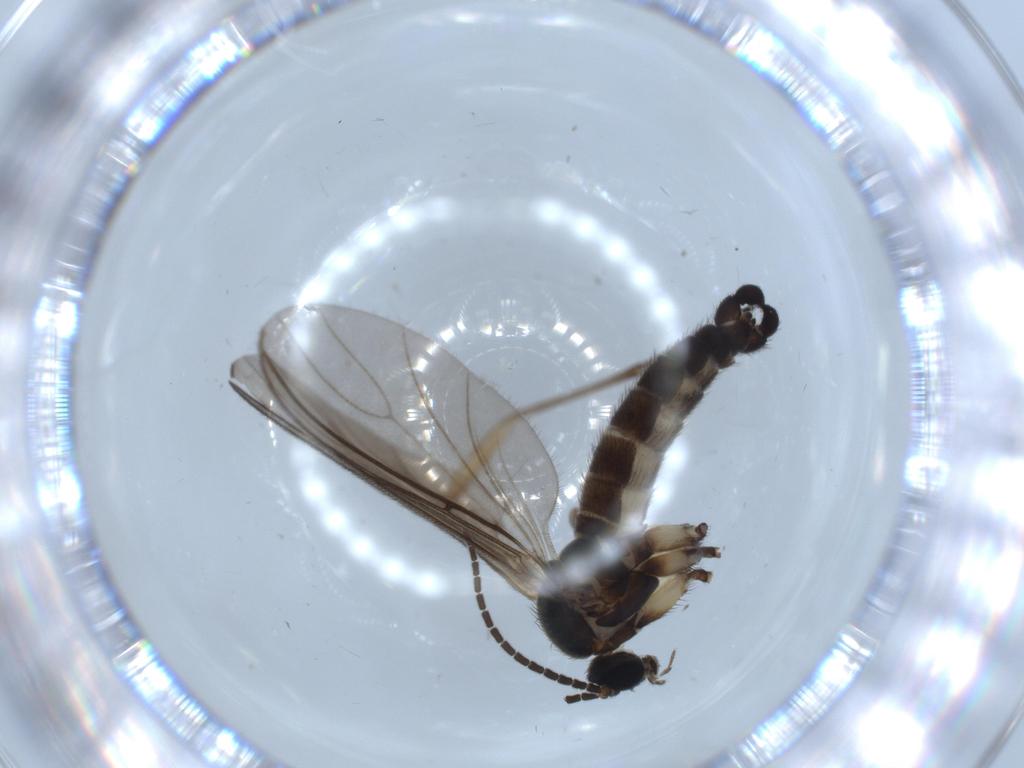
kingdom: Animalia
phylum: Arthropoda
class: Insecta
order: Diptera
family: Sciaridae
